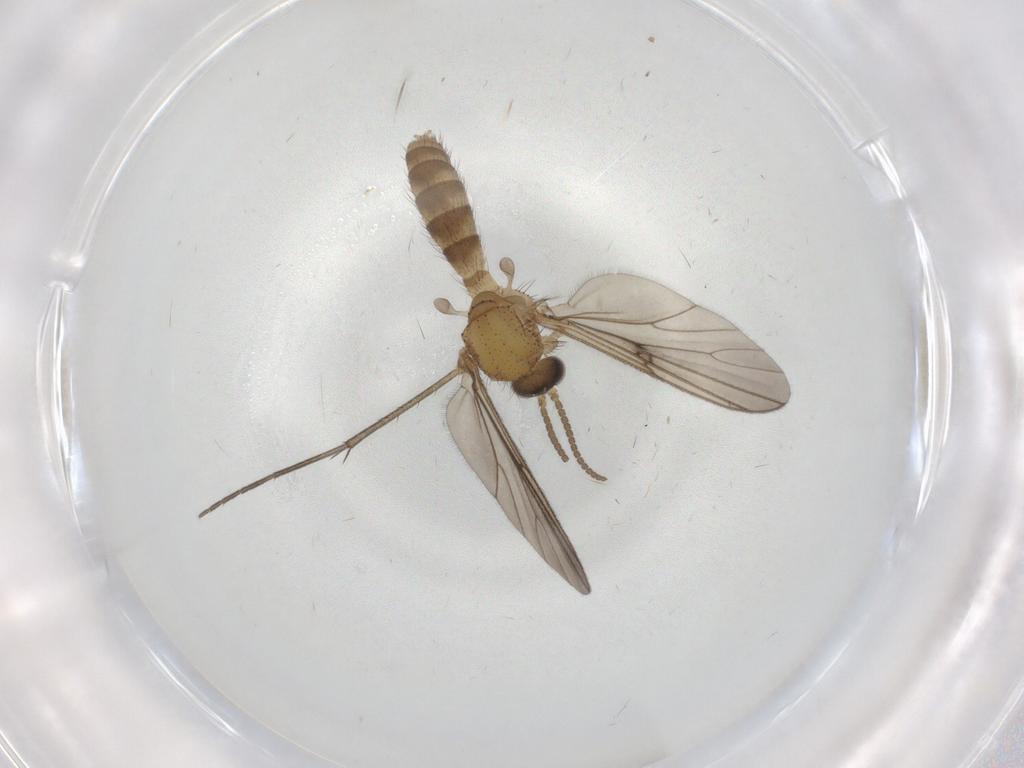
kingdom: Animalia
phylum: Arthropoda
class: Insecta
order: Diptera
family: Mycetophilidae
